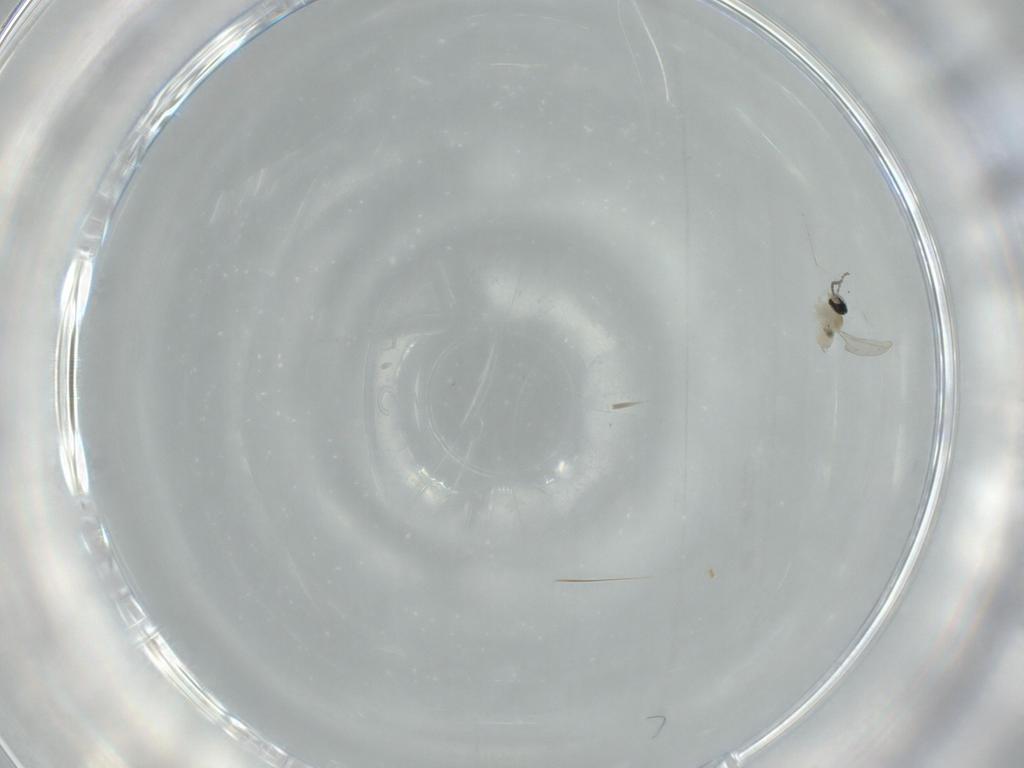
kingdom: Animalia
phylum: Arthropoda
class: Insecta
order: Diptera
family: Cecidomyiidae
